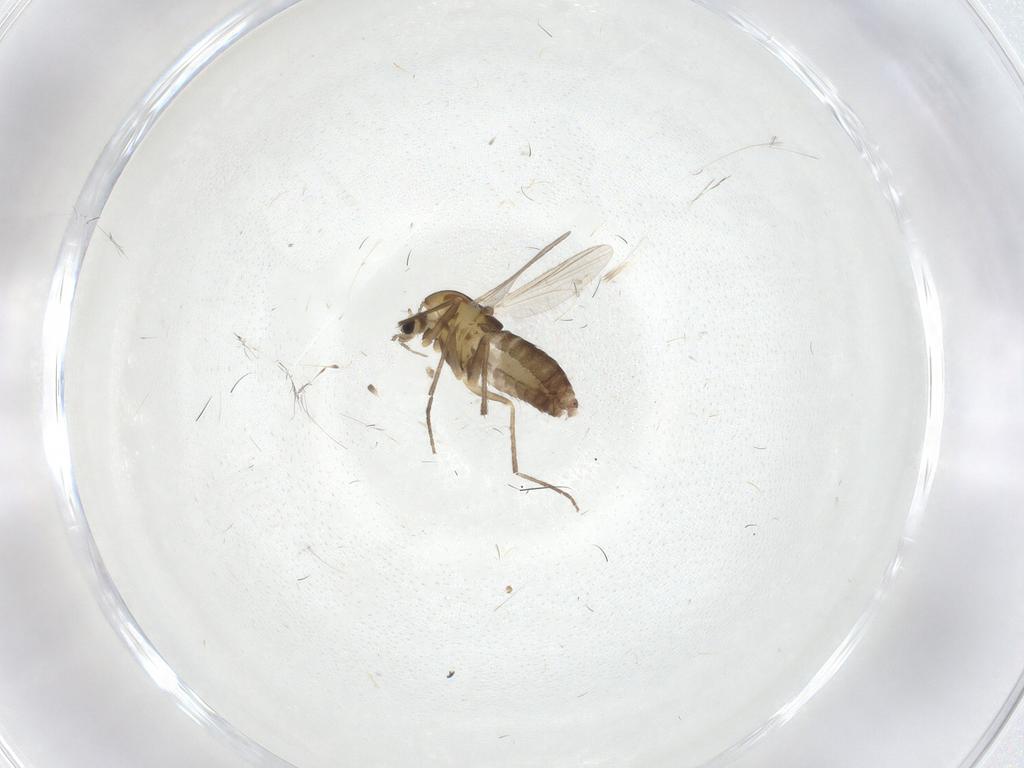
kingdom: Animalia
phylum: Arthropoda
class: Insecta
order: Diptera
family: Chironomidae
